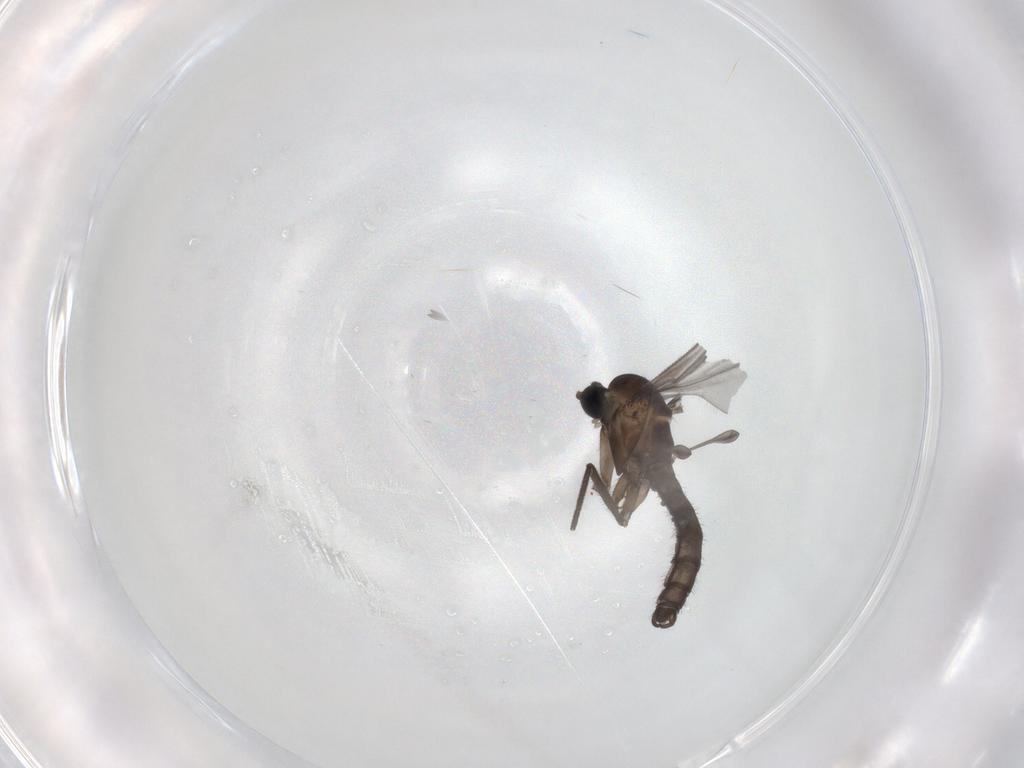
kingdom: Animalia
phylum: Arthropoda
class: Insecta
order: Diptera
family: Sciaridae
